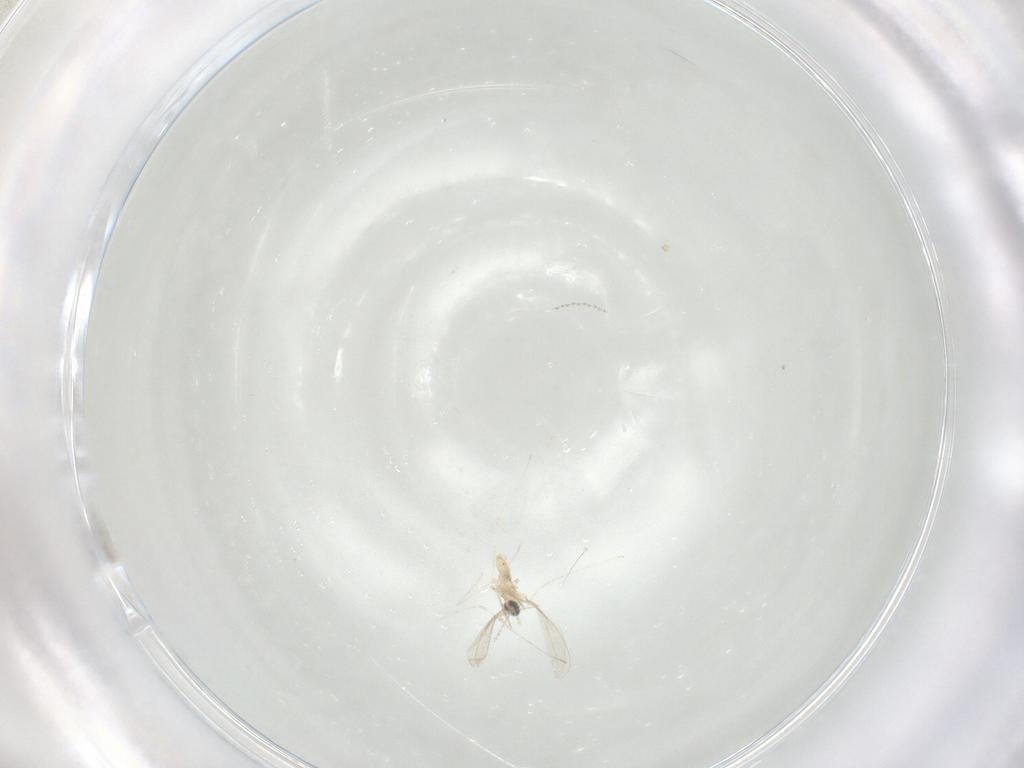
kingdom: Animalia
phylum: Arthropoda
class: Insecta
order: Diptera
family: Cecidomyiidae
